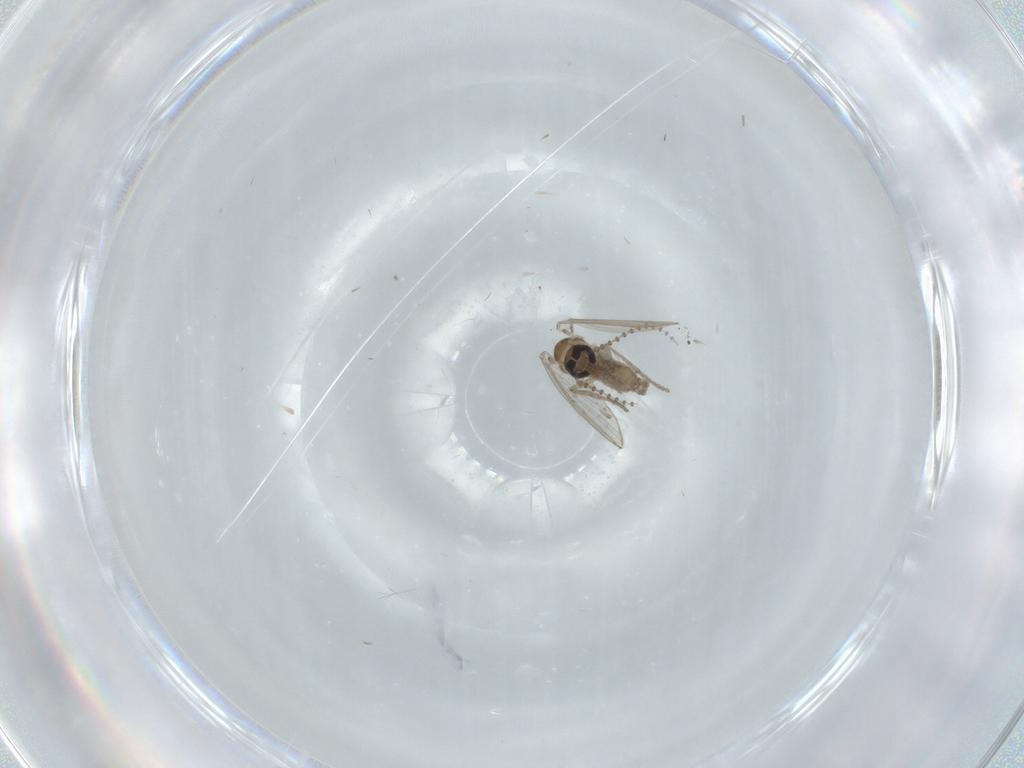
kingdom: Animalia
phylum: Arthropoda
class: Insecta
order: Diptera
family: Psychodidae
